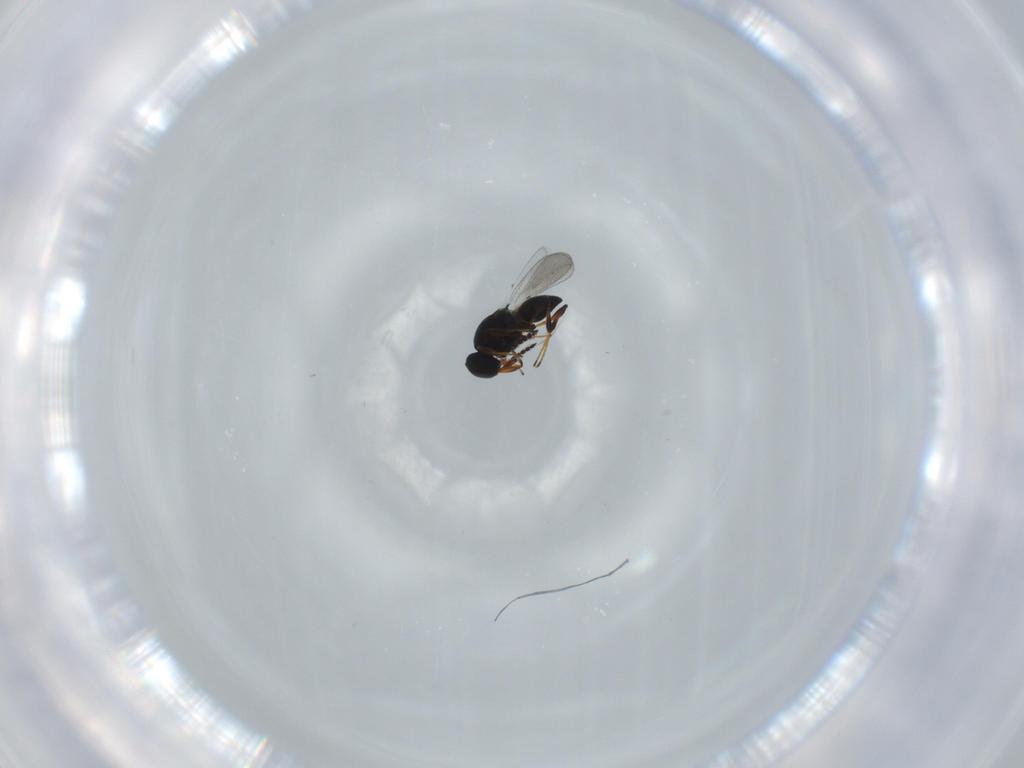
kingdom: Animalia
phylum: Arthropoda
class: Insecta
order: Hymenoptera
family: Platygastridae
